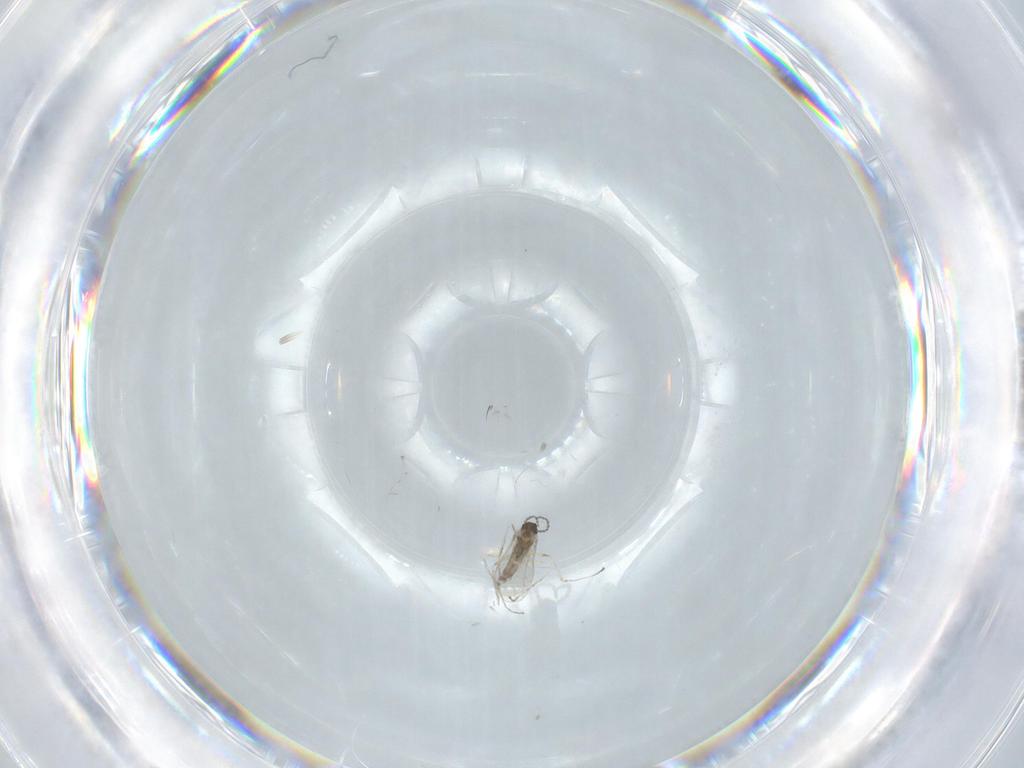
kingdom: Animalia
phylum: Arthropoda
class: Insecta
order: Diptera
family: Cecidomyiidae
